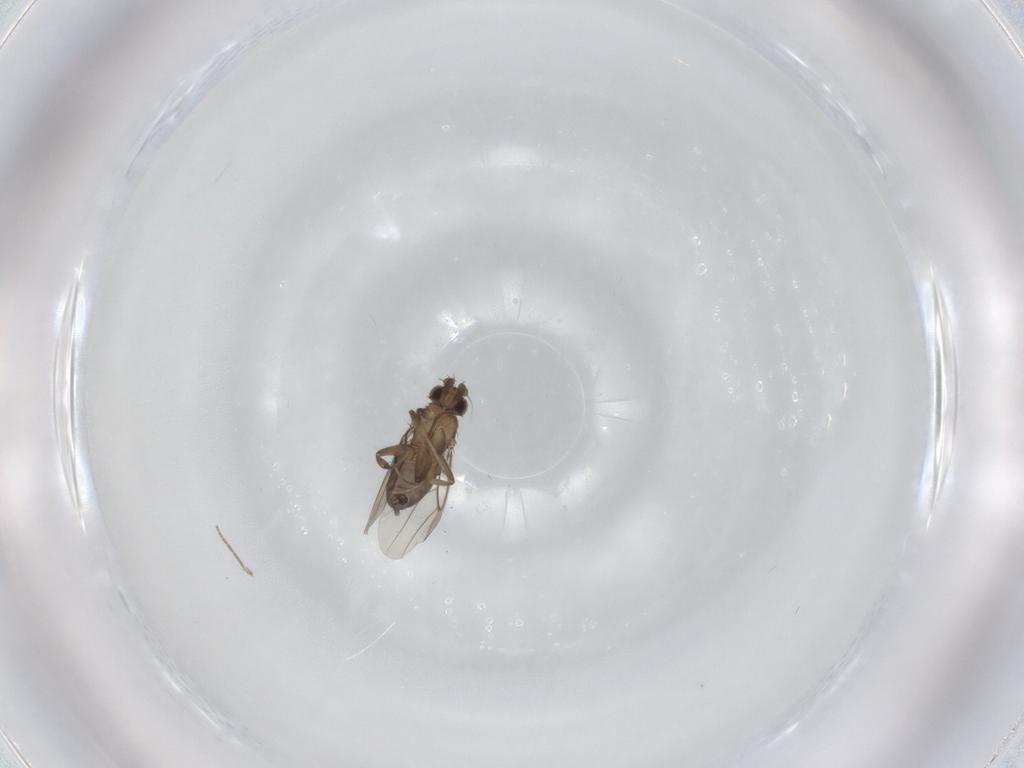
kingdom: Animalia
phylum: Arthropoda
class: Insecta
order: Diptera
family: Phoridae
